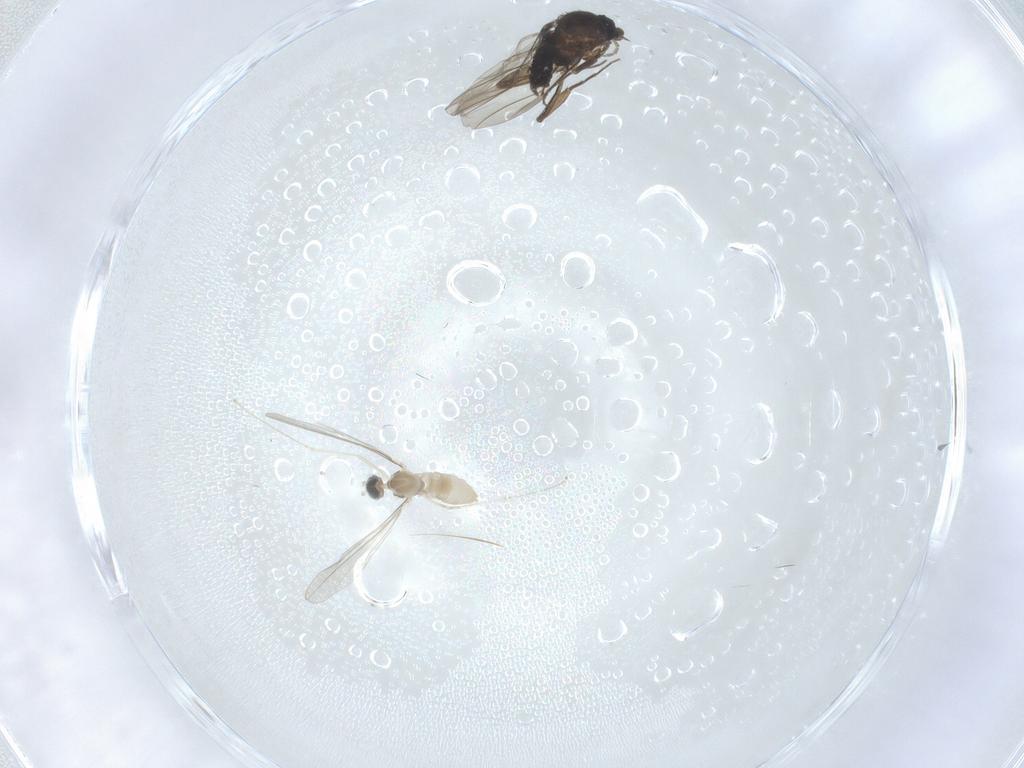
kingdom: Animalia
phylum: Arthropoda
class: Insecta
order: Diptera
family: Phoridae
